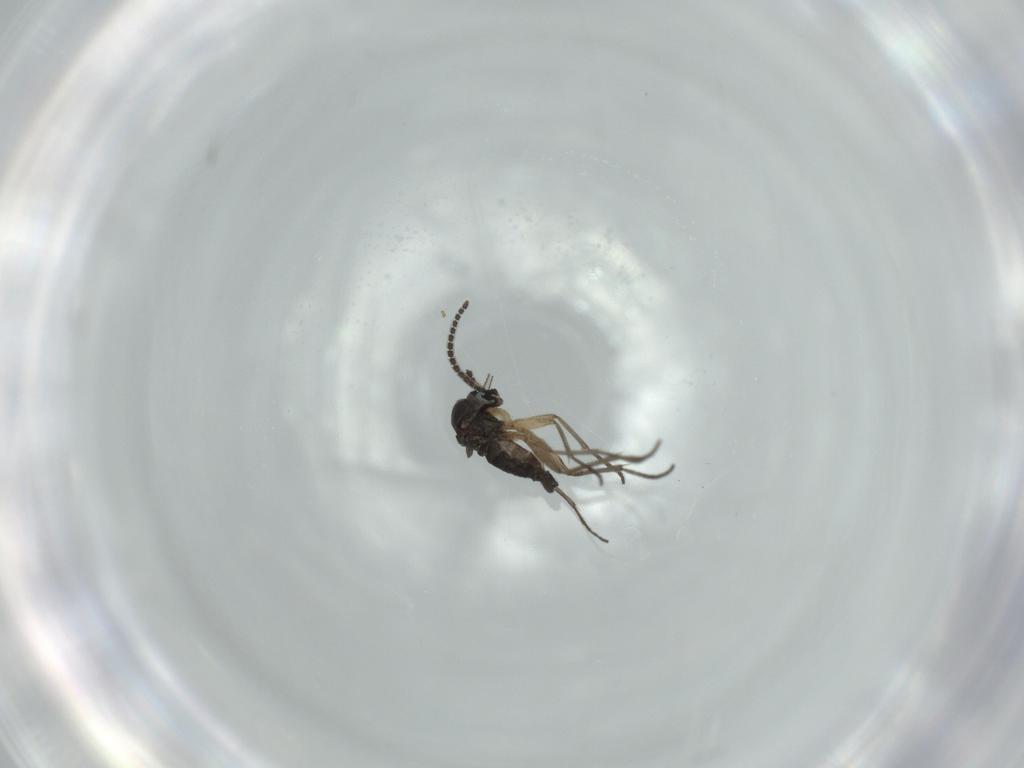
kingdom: Animalia
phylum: Arthropoda
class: Insecta
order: Diptera
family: Sciaridae
